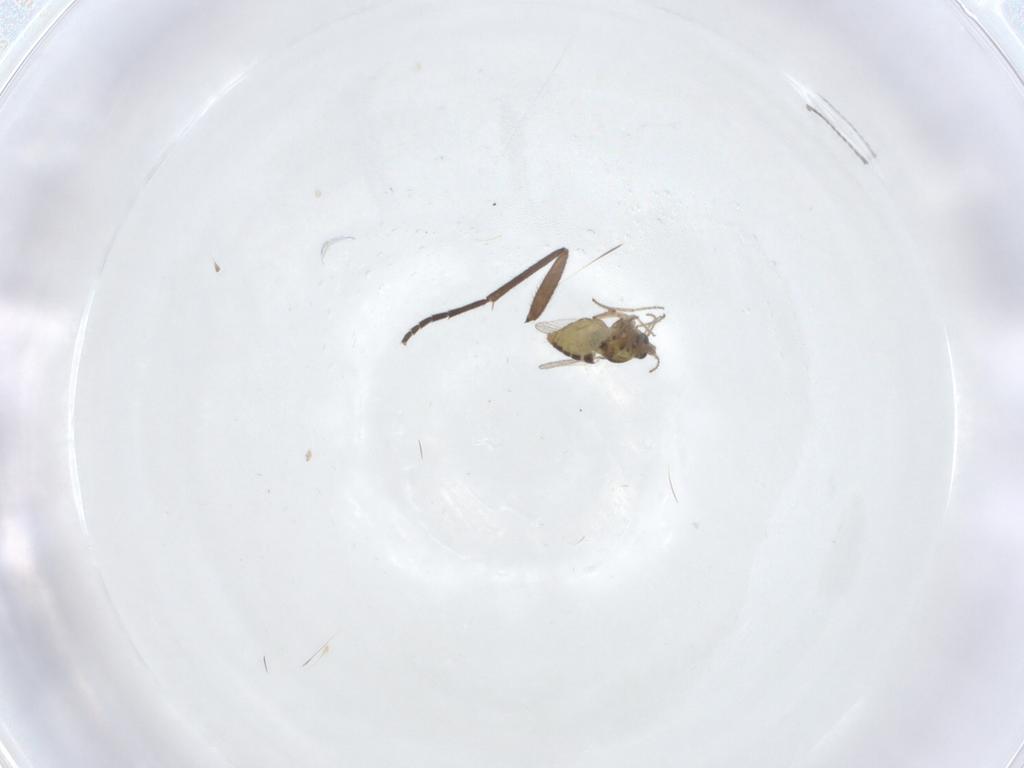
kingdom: Animalia
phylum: Arthropoda
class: Insecta
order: Diptera
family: Ceratopogonidae
